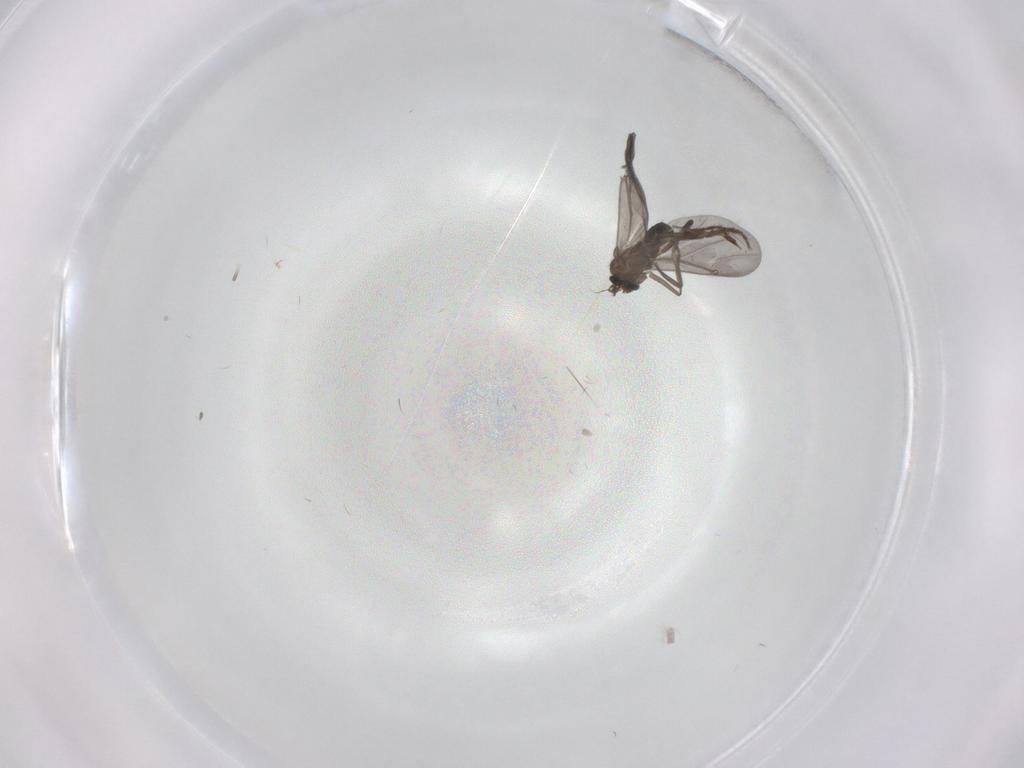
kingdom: Animalia
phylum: Arthropoda
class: Insecta
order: Diptera
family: Phoridae
